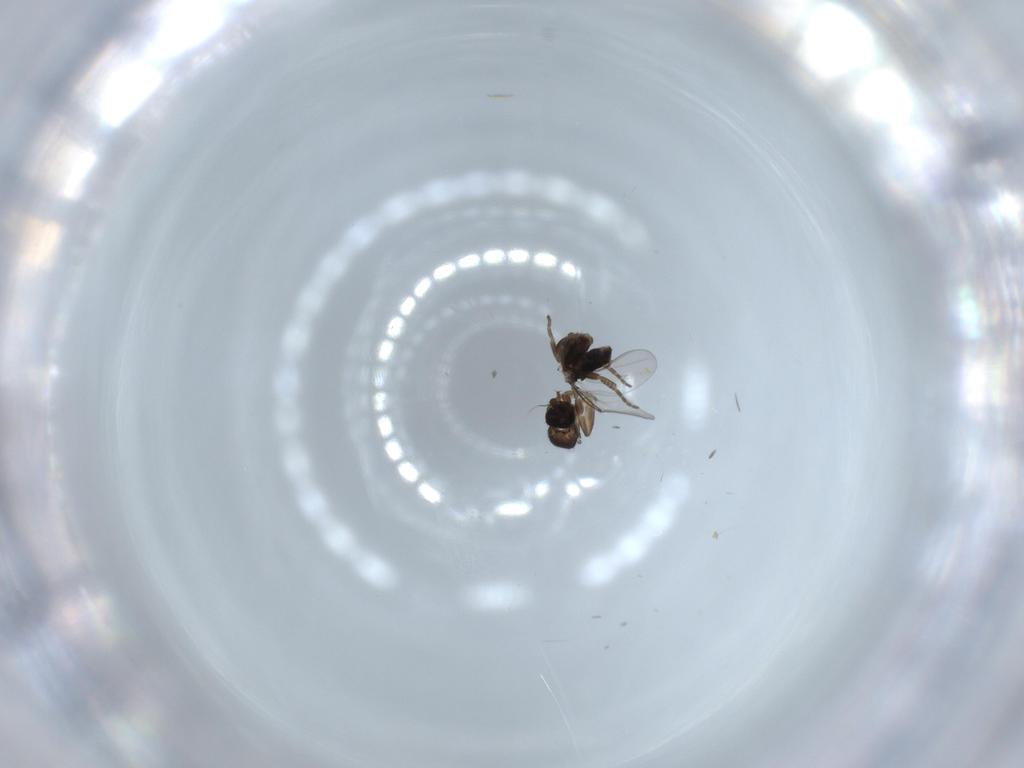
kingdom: Animalia
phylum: Arthropoda
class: Insecta
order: Diptera
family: Phoridae
